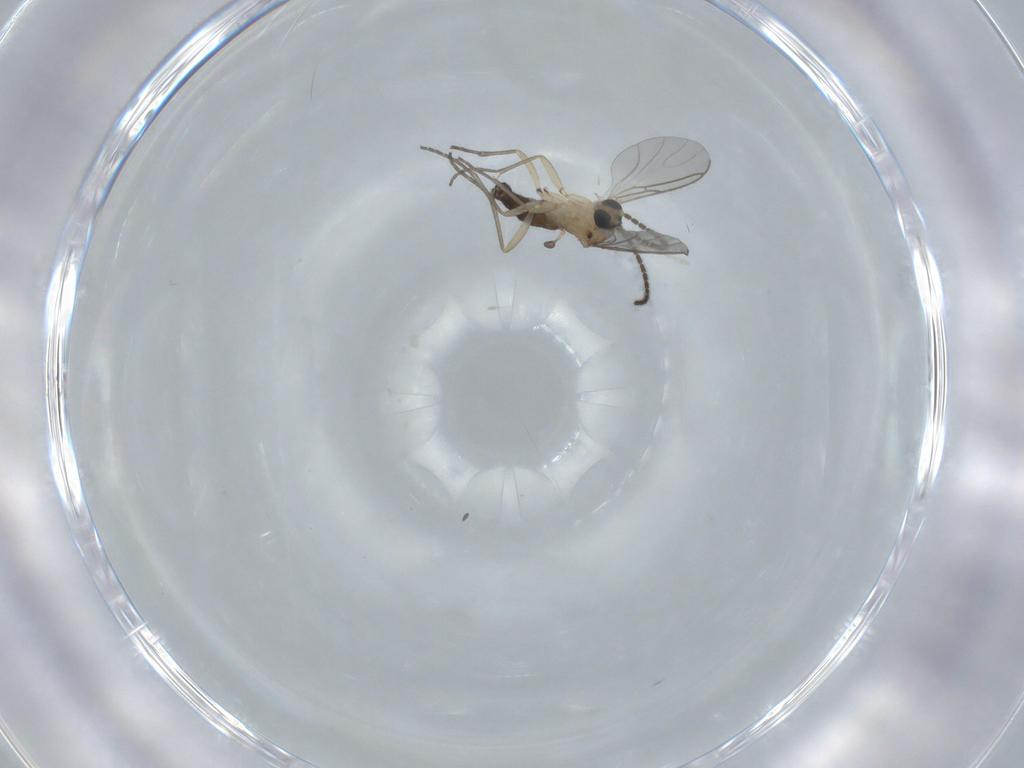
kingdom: Animalia
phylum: Arthropoda
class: Insecta
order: Diptera
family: Sciaridae
